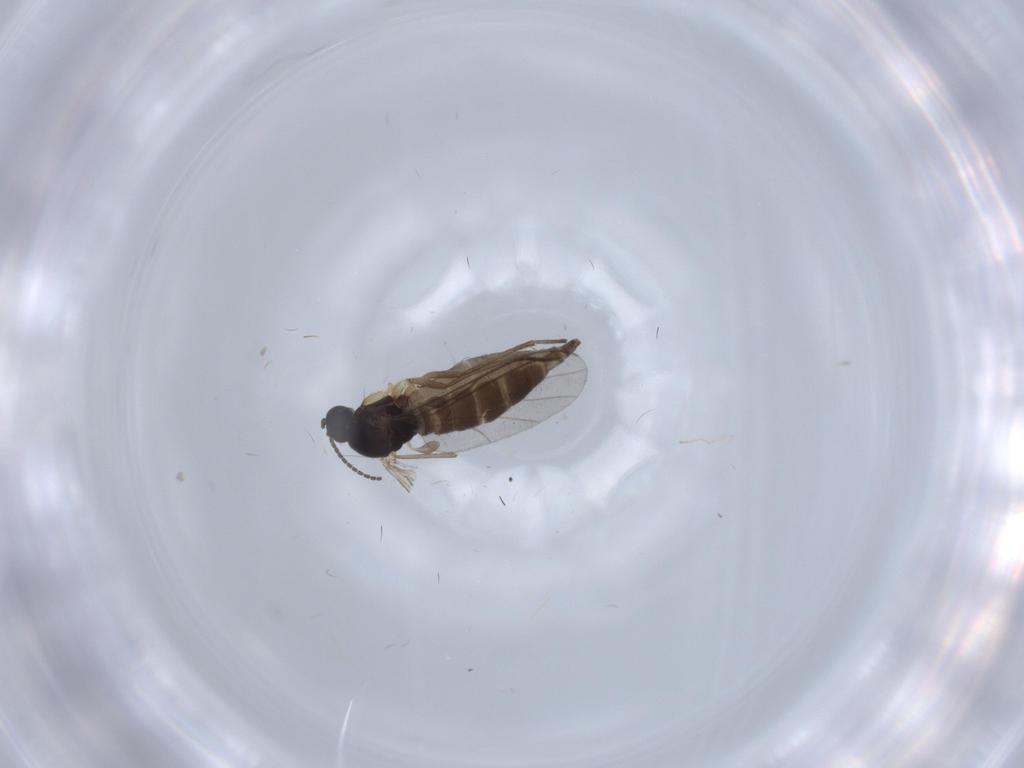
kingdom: Animalia
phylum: Arthropoda
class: Insecta
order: Diptera
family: Sciaridae
